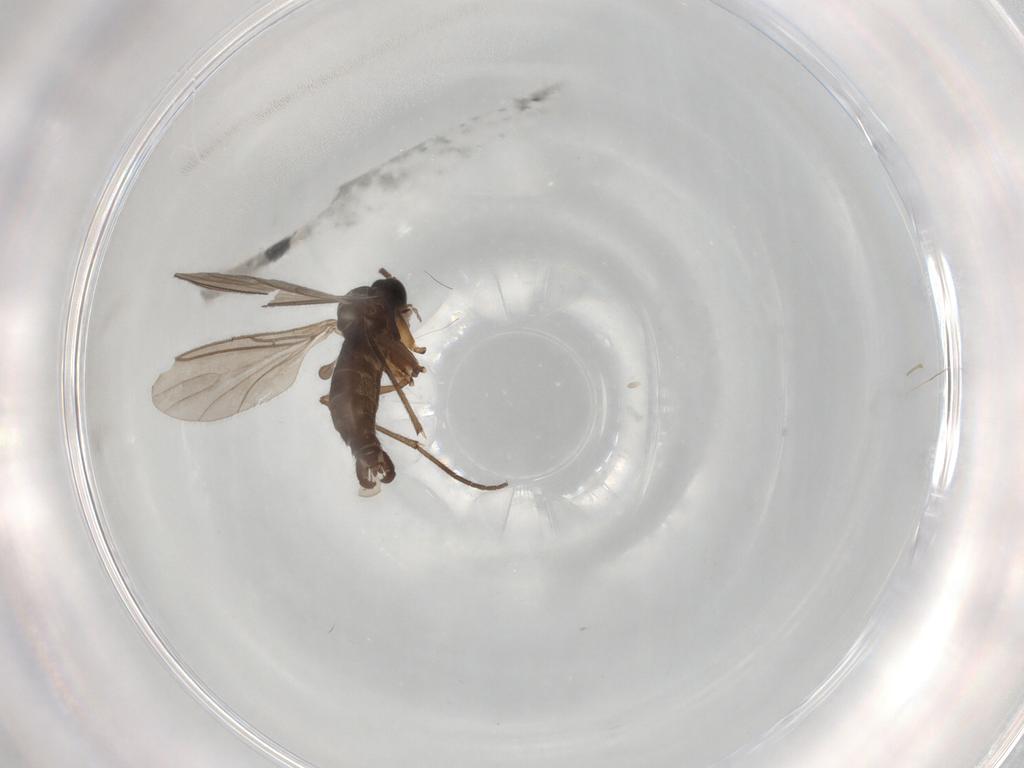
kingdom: Animalia
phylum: Arthropoda
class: Insecta
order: Diptera
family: Sciaridae
